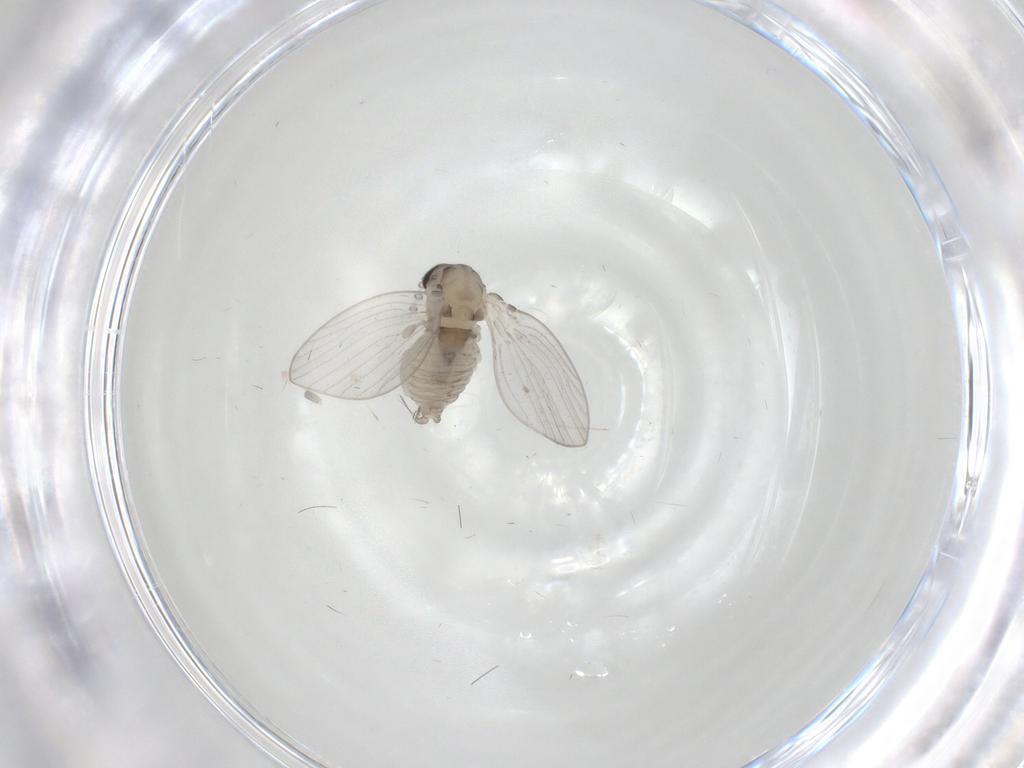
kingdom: Animalia
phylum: Arthropoda
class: Insecta
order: Diptera
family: Psychodidae
